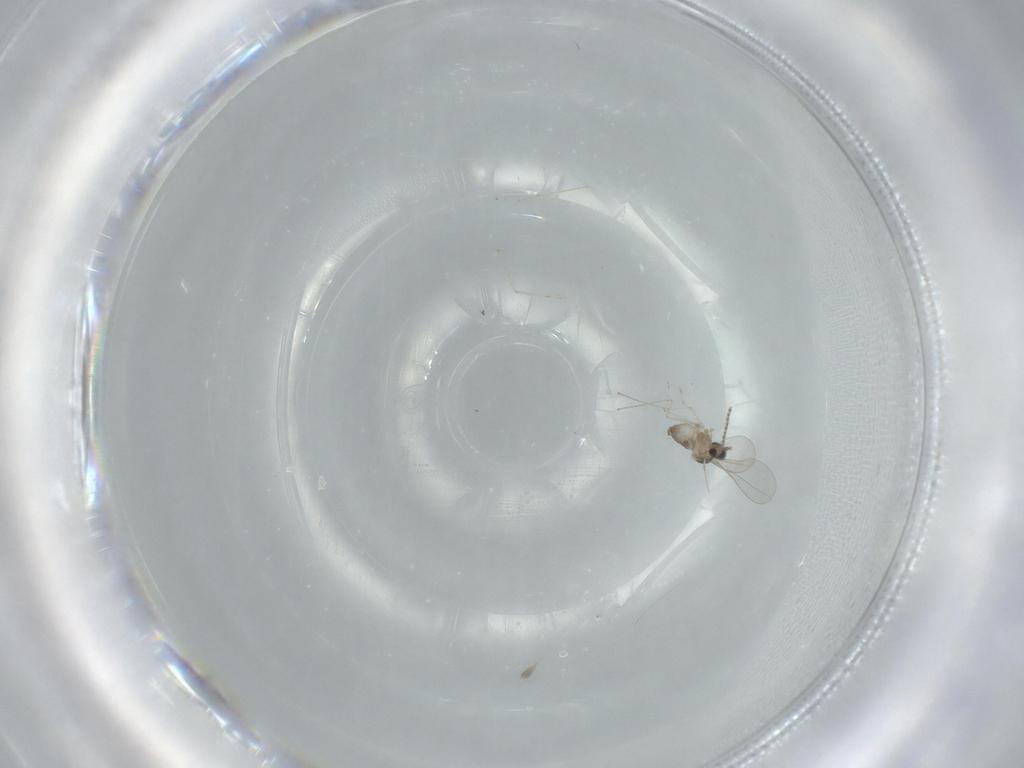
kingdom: Animalia
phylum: Arthropoda
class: Insecta
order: Diptera
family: Cecidomyiidae
